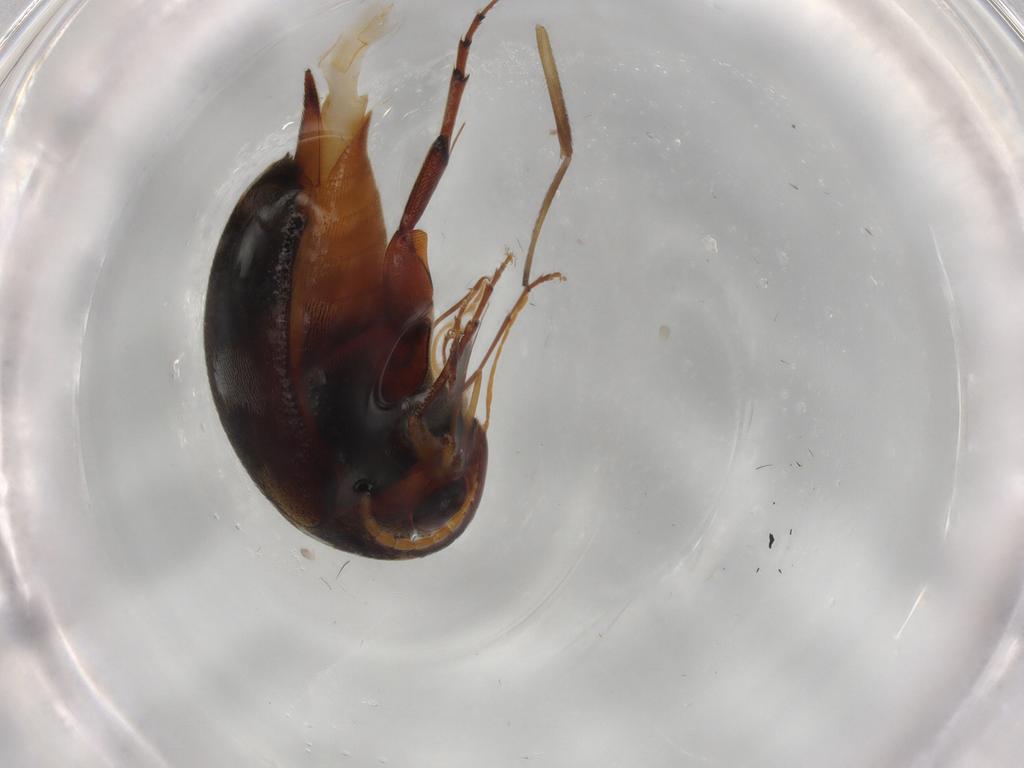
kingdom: Animalia
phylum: Arthropoda
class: Insecta
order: Coleoptera
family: Mordellidae
